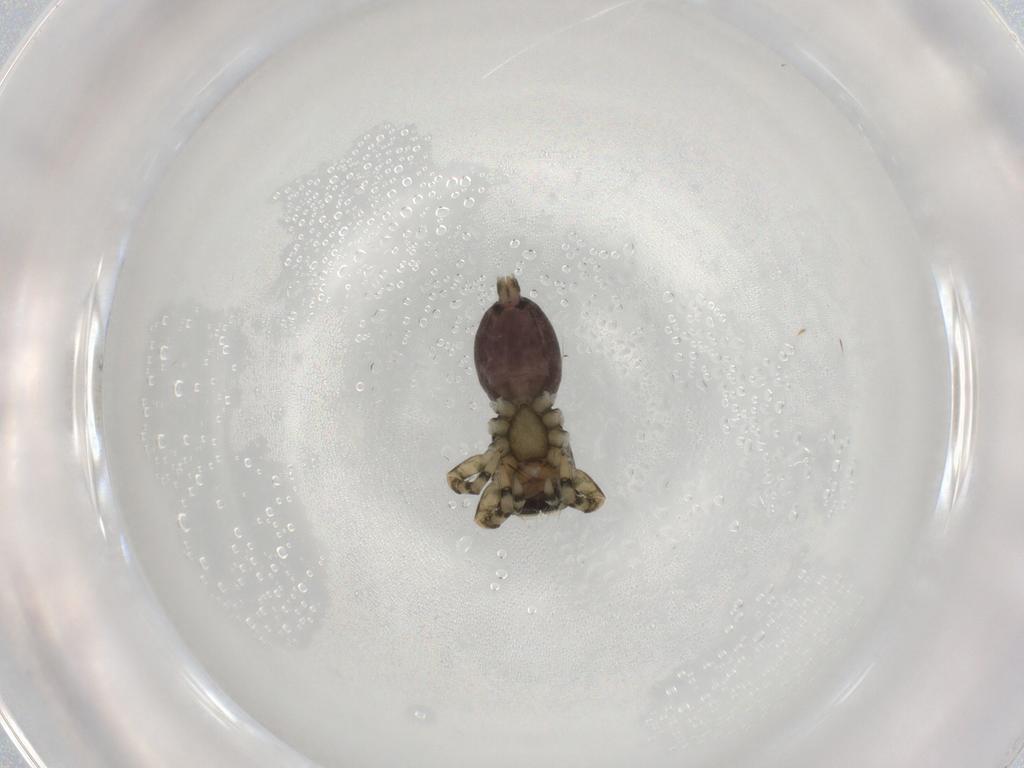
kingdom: Animalia
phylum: Arthropoda
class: Arachnida
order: Araneae
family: Salticidae
